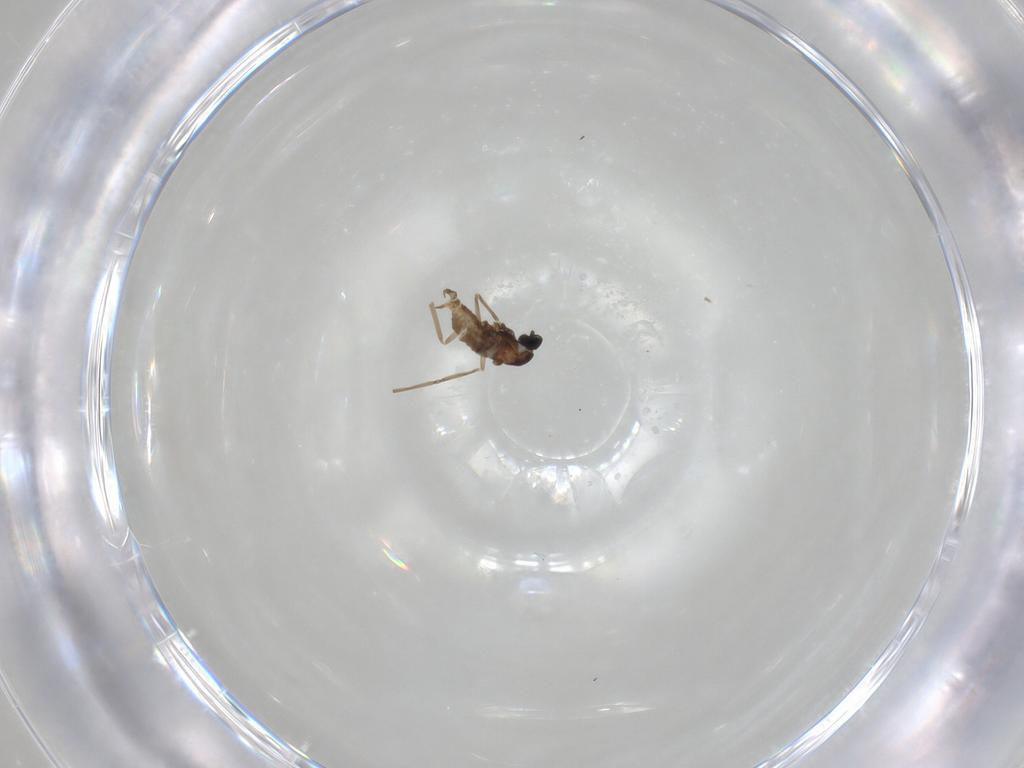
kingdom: Animalia
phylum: Arthropoda
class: Insecta
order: Diptera
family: Cecidomyiidae
